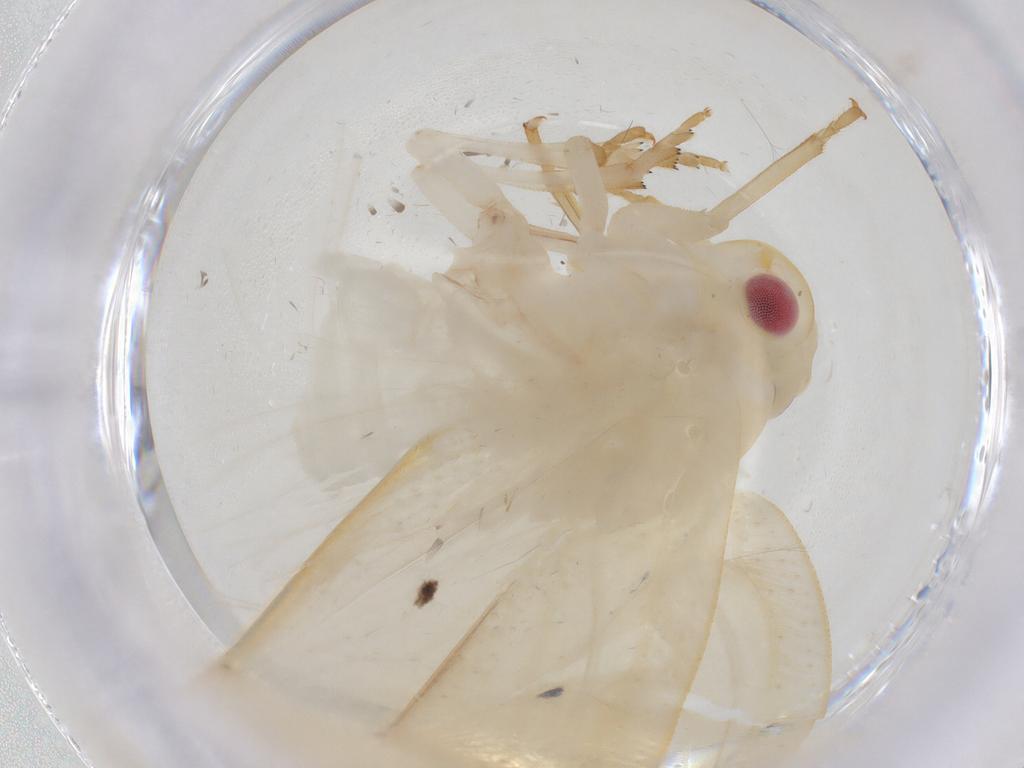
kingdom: Animalia
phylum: Arthropoda
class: Insecta
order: Hemiptera
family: Flatidae
